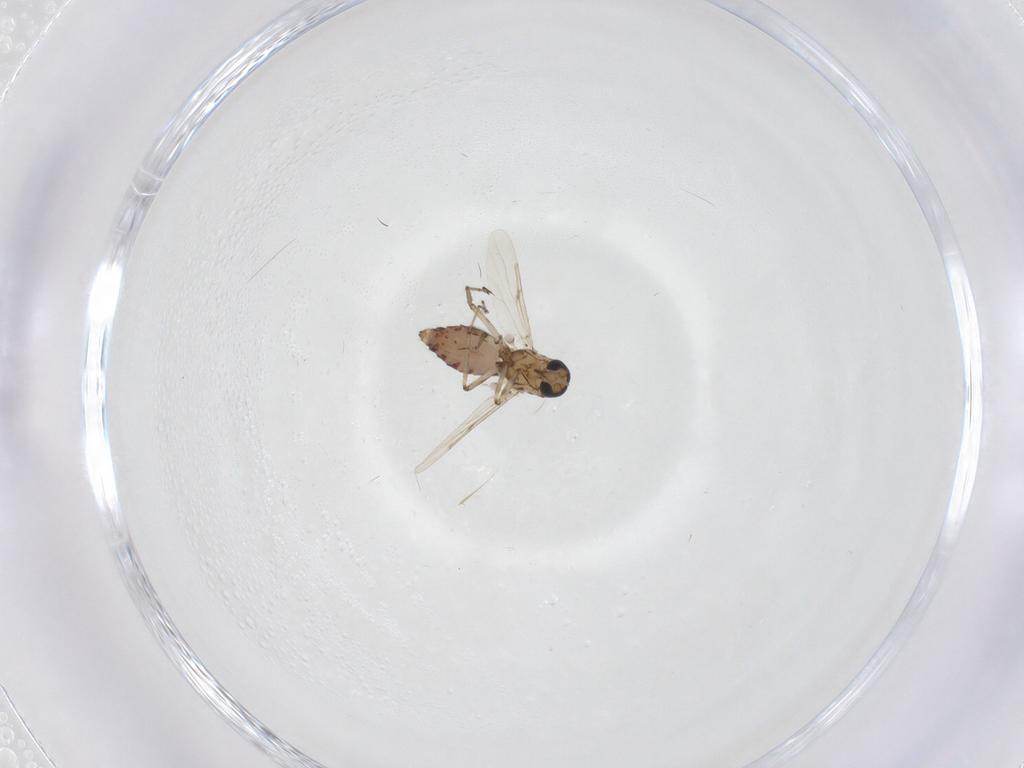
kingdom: Animalia
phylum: Arthropoda
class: Insecta
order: Diptera
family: Ceratopogonidae
